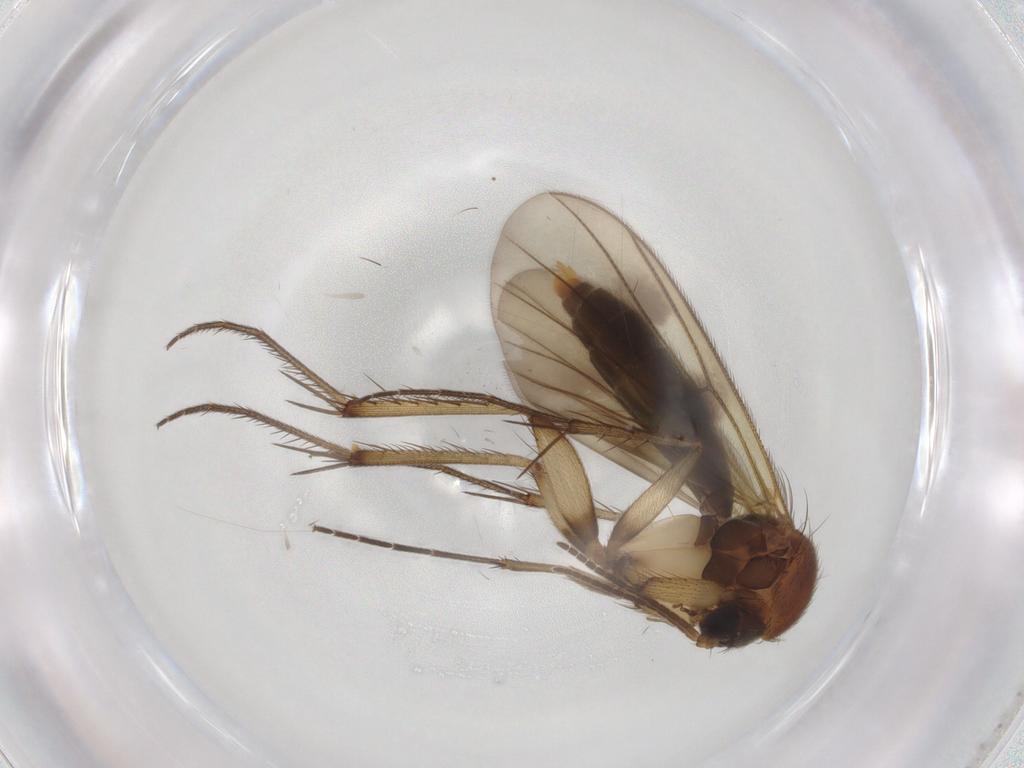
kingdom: Animalia
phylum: Arthropoda
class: Insecta
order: Diptera
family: Mycetophilidae
